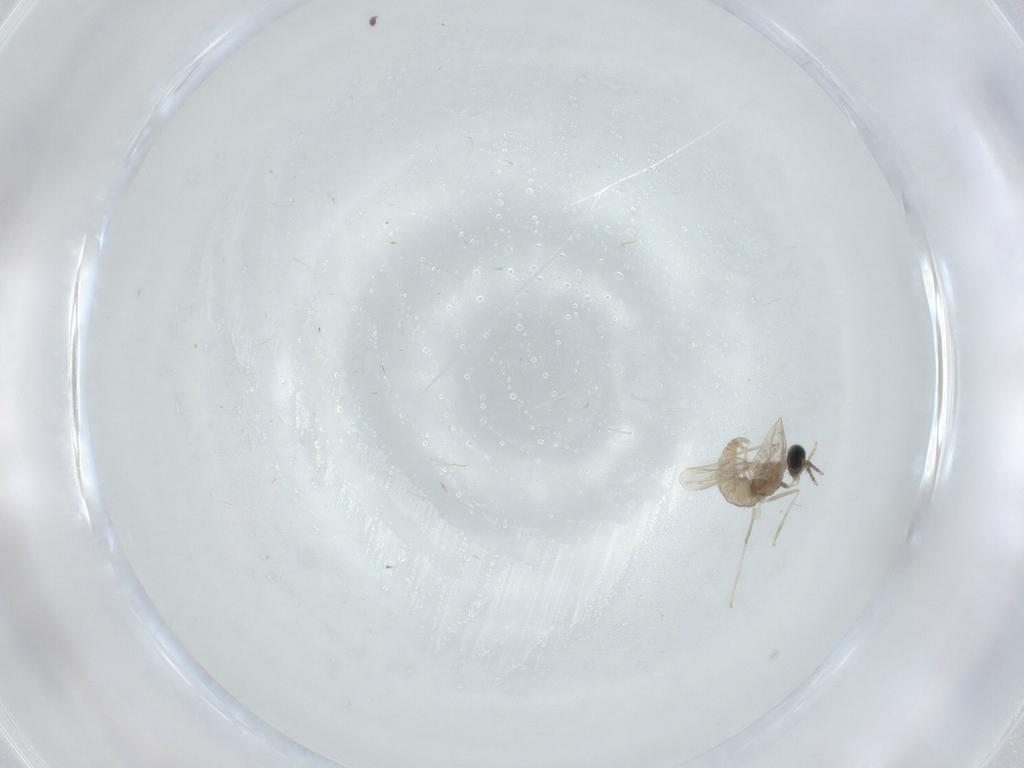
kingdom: Animalia
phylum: Arthropoda
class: Insecta
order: Diptera
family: Cecidomyiidae
